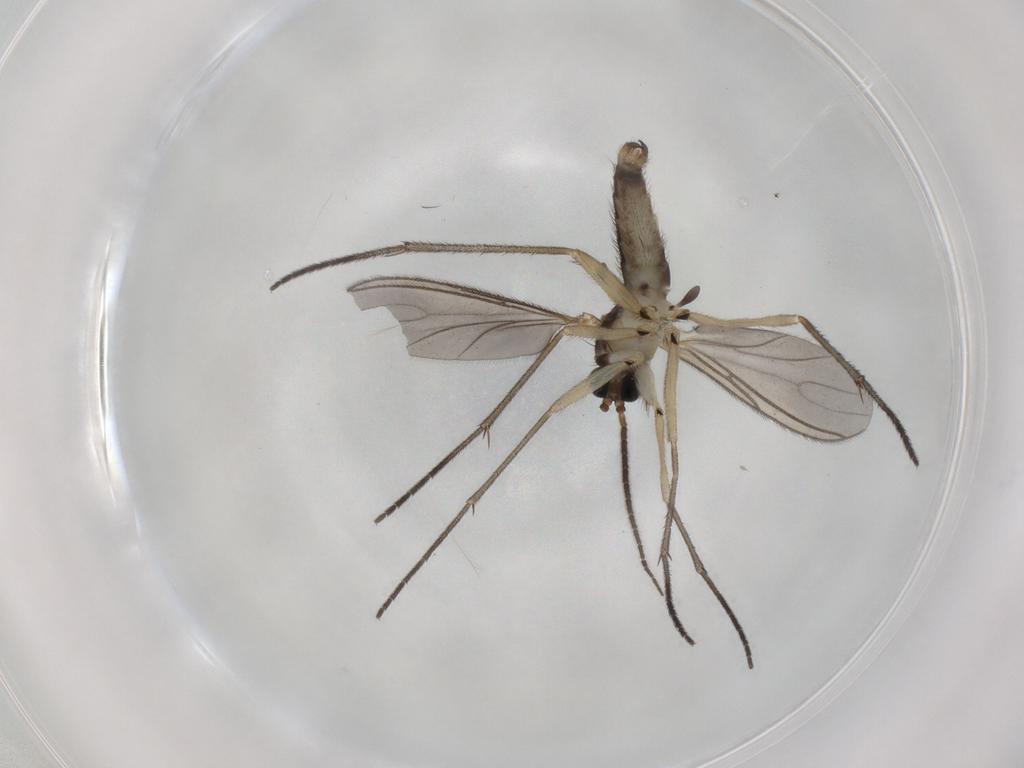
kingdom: Animalia
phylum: Arthropoda
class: Insecta
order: Diptera
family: Sciaridae
